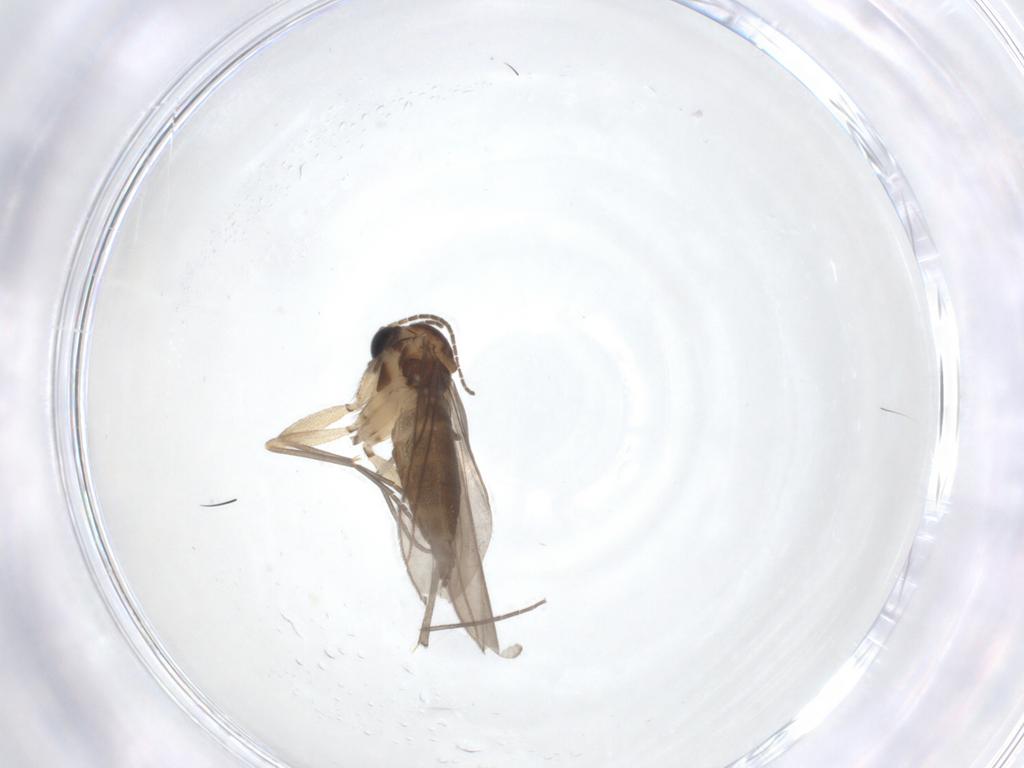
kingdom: Animalia
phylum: Arthropoda
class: Insecta
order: Diptera
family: Sciaridae
